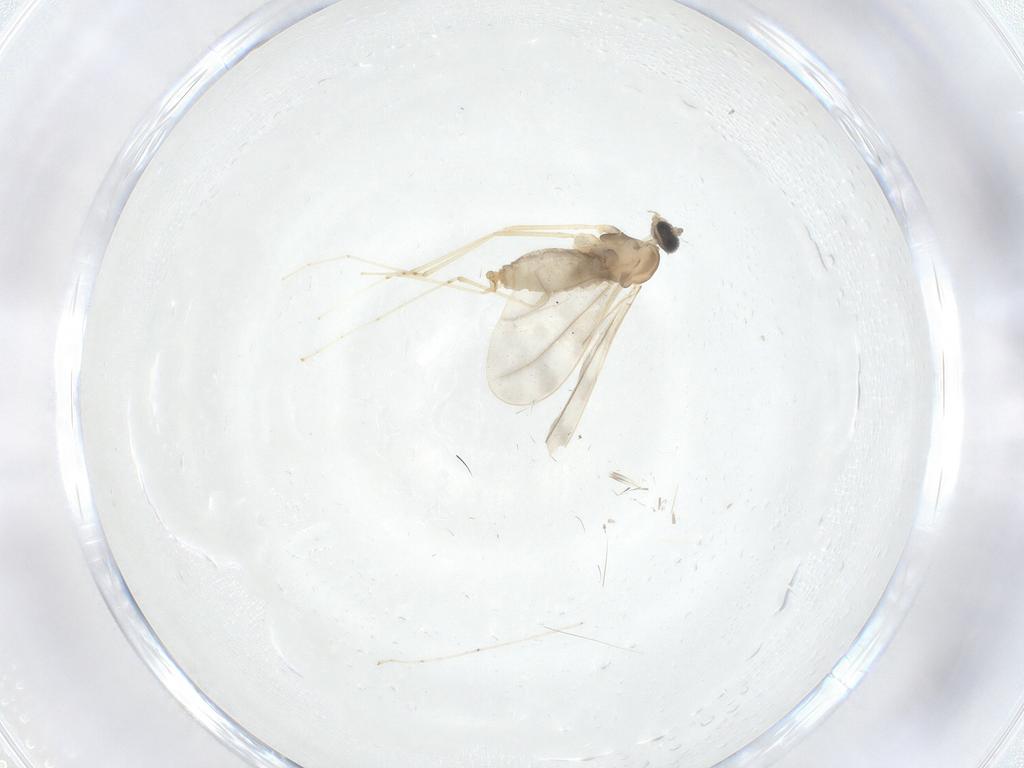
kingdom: Animalia
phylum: Arthropoda
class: Insecta
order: Diptera
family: Cecidomyiidae
